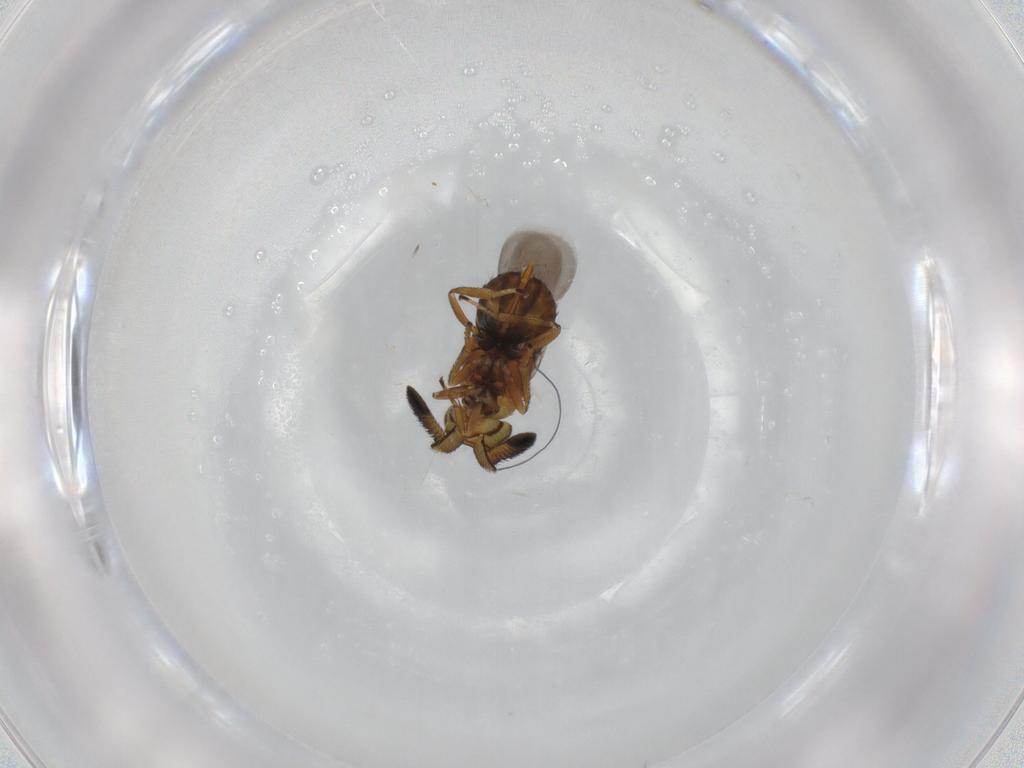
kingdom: Animalia
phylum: Arthropoda
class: Insecta
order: Hymenoptera
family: Encyrtidae
